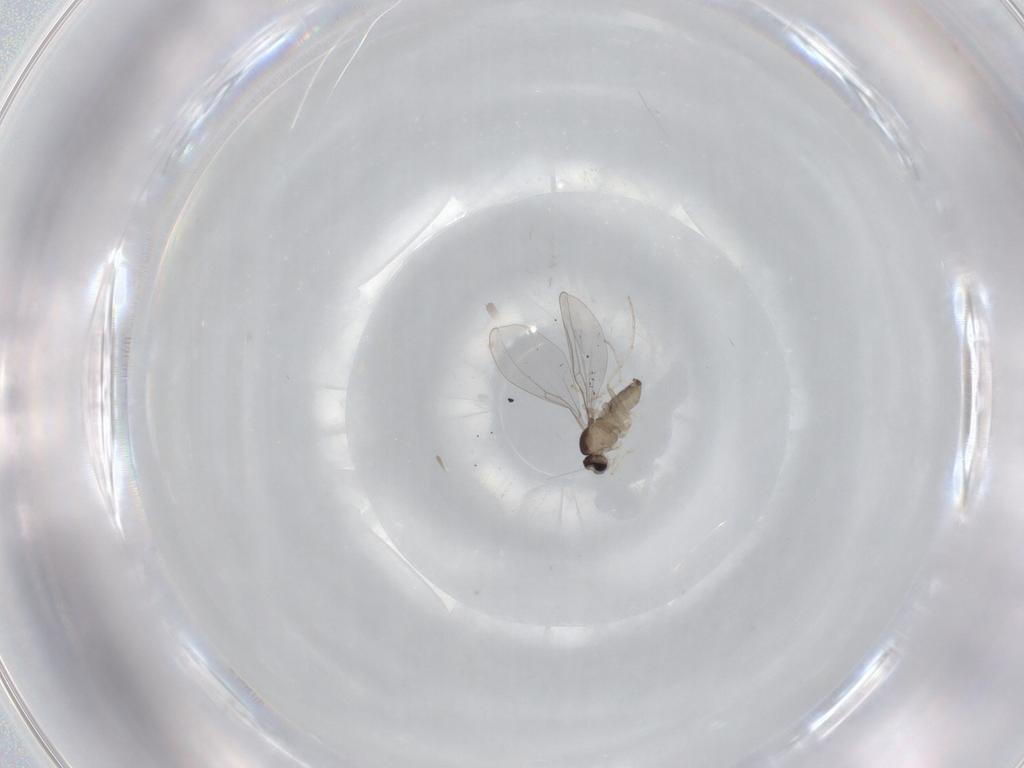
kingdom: Animalia
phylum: Arthropoda
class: Insecta
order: Diptera
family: Cecidomyiidae
